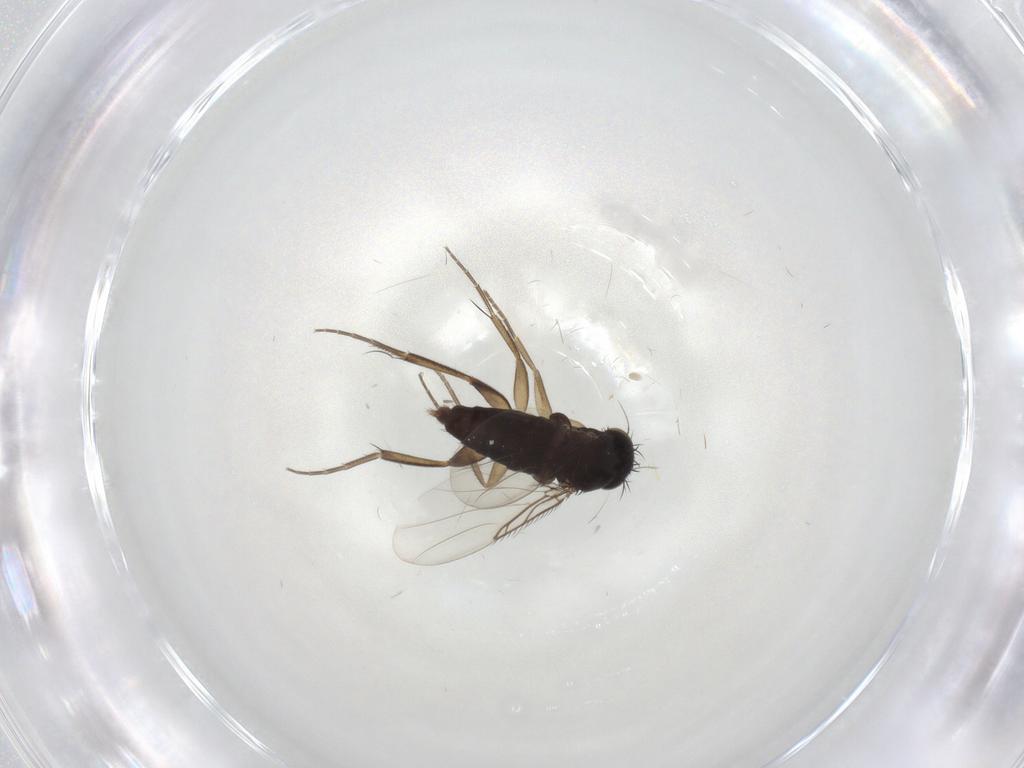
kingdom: Animalia
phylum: Arthropoda
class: Insecta
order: Diptera
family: Phoridae
